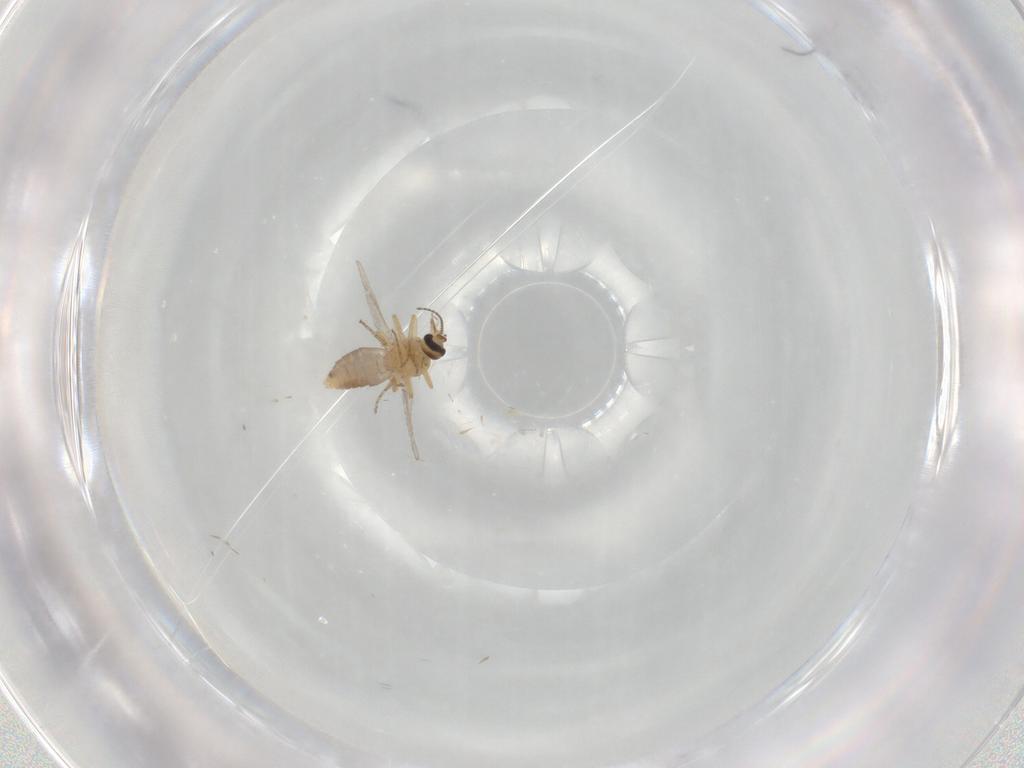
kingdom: Animalia
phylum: Arthropoda
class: Insecta
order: Diptera
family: Ceratopogonidae
